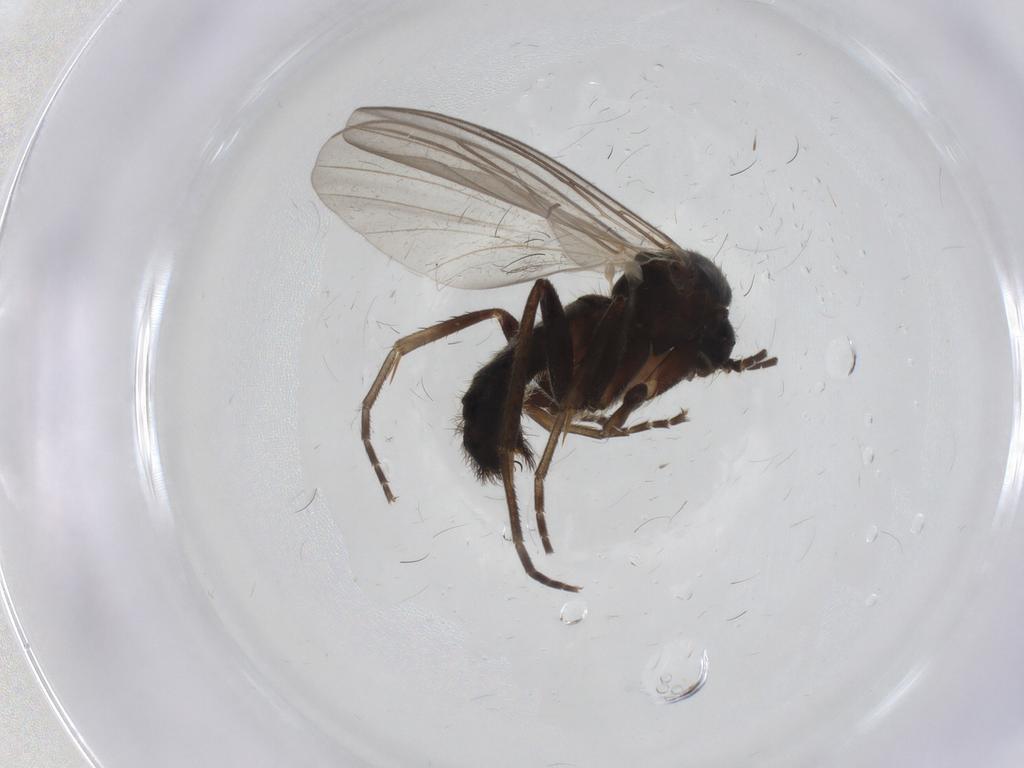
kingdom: Animalia
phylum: Arthropoda
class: Insecta
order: Diptera
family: Mycetophilidae
